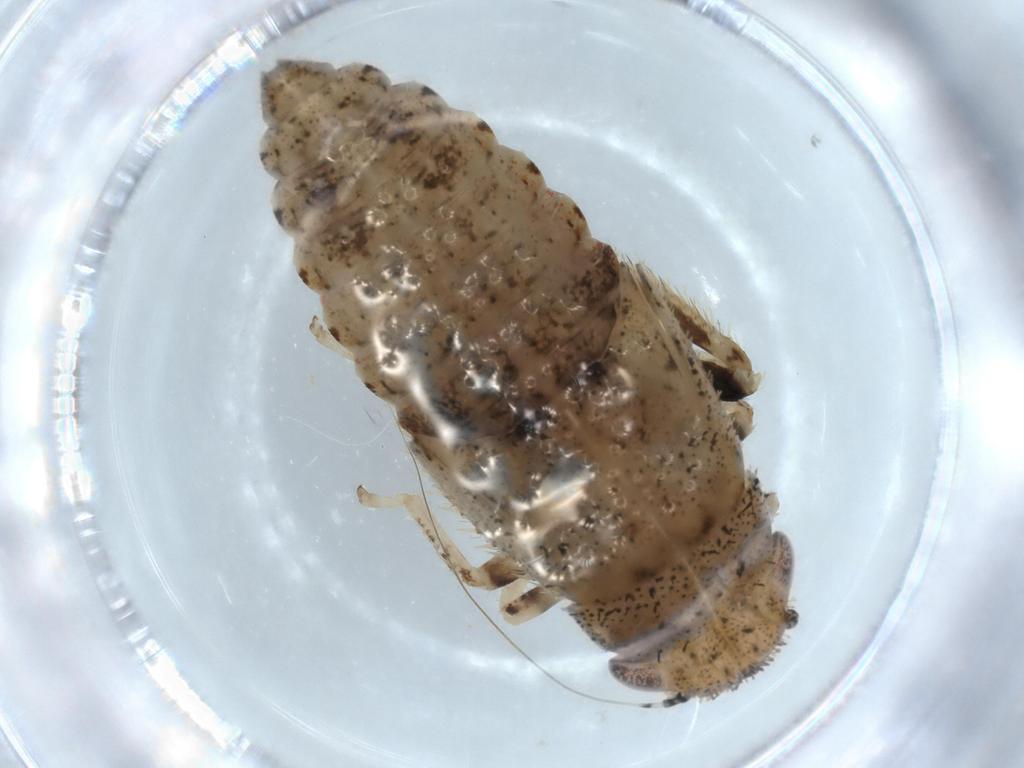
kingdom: Animalia
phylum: Arthropoda
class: Insecta
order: Hemiptera
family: Cicadellidae
